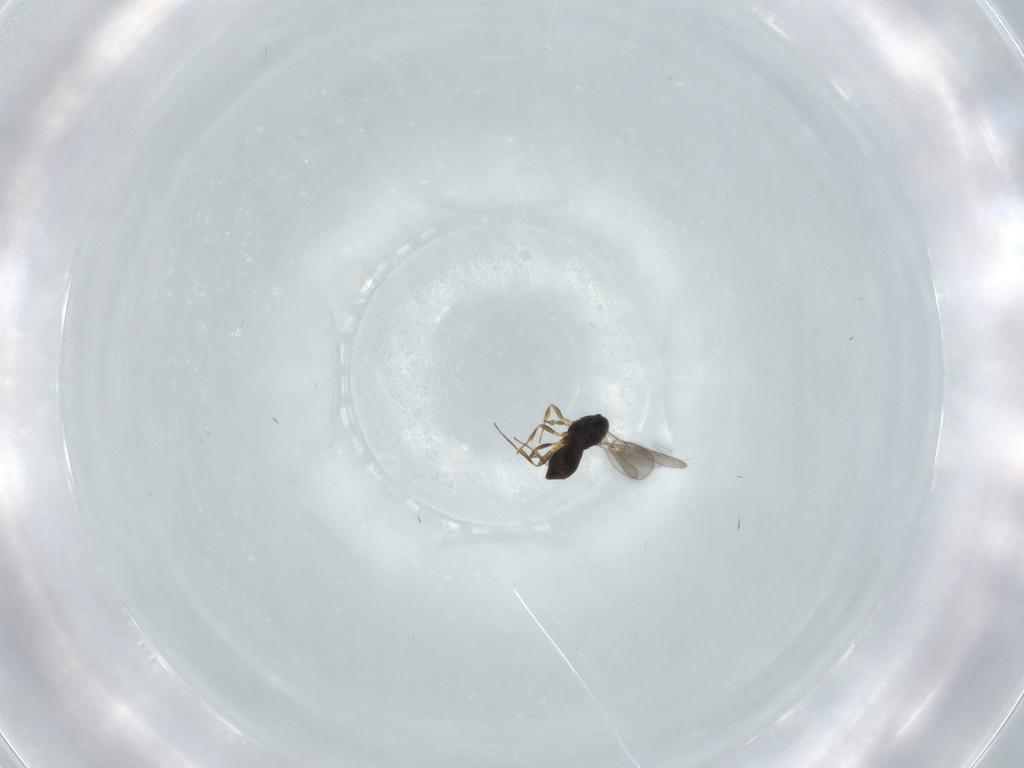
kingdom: Animalia
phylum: Arthropoda
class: Insecta
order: Hymenoptera
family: Scelionidae
